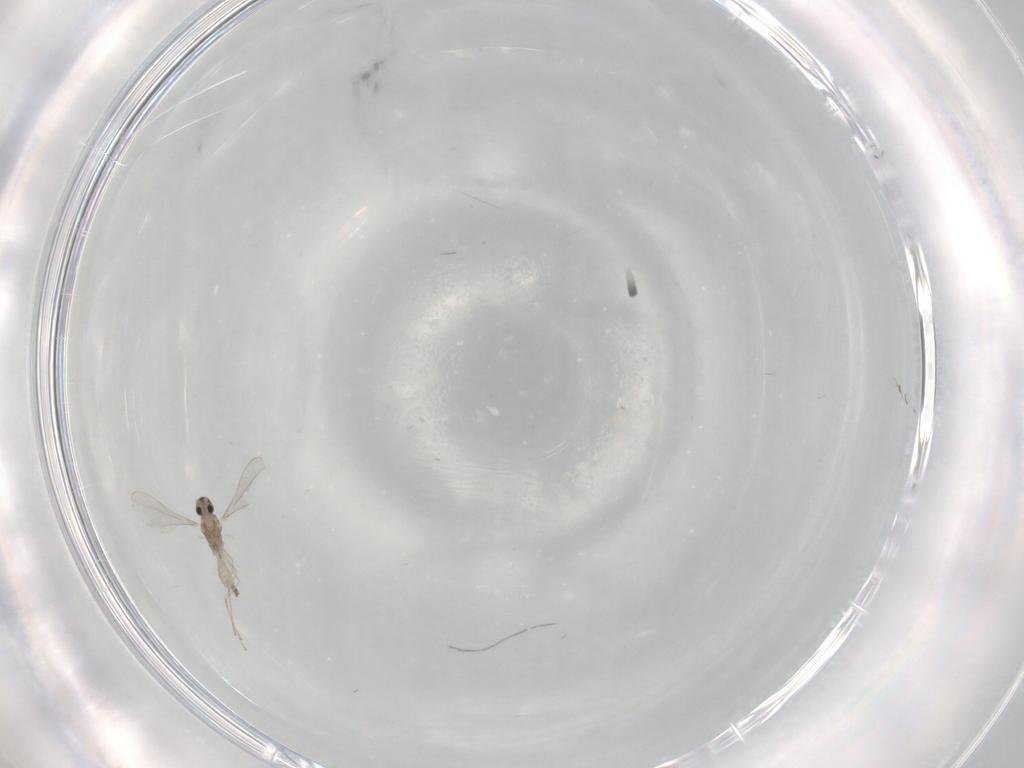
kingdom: Animalia
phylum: Arthropoda
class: Insecta
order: Diptera
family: Cecidomyiidae
